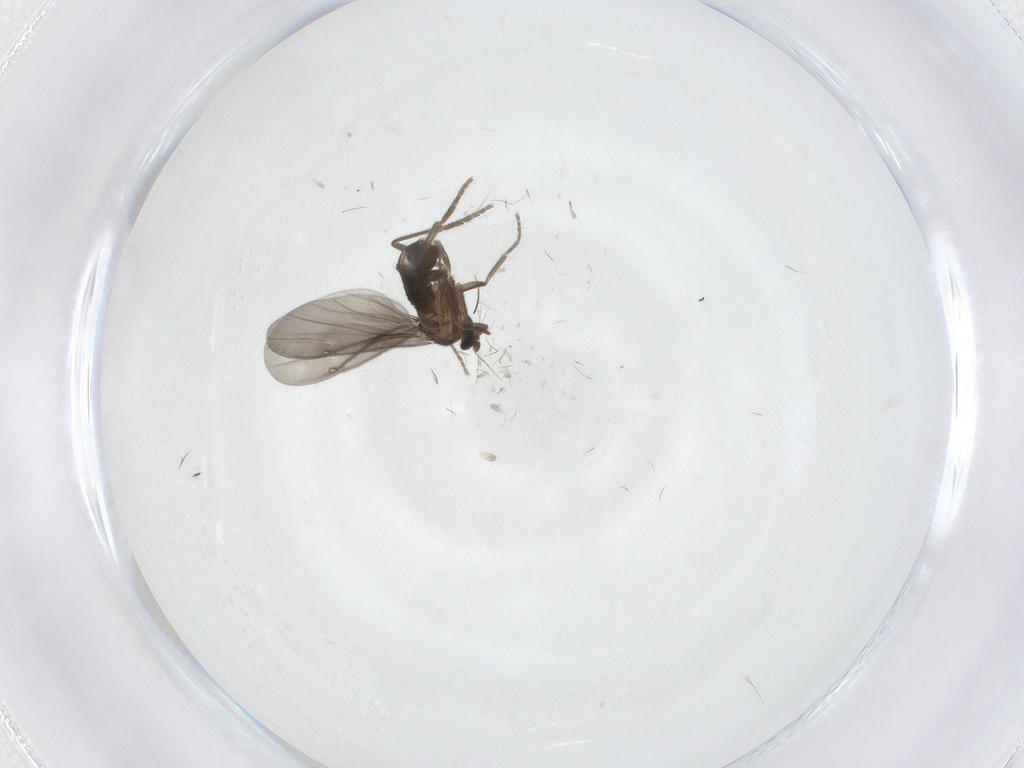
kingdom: Animalia
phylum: Arthropoda
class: Insecta
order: Diptera
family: Phoridae
